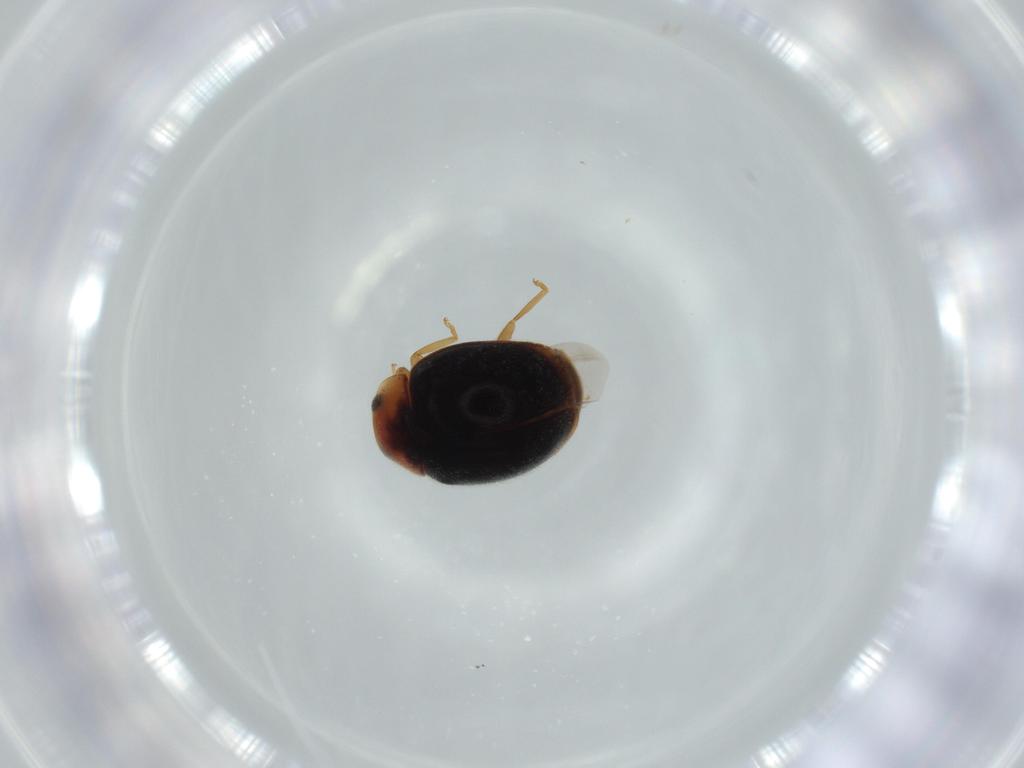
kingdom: Animalia
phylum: Arthropoda
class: Insecta
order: Coleoptera
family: Coccinellidae
